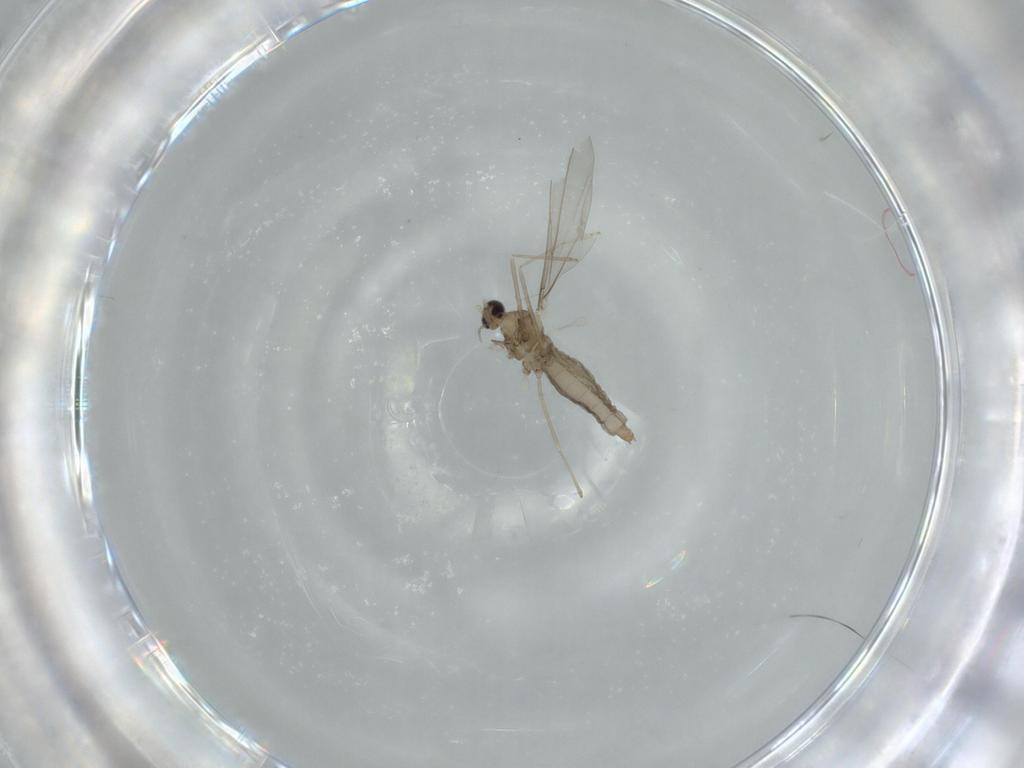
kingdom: Animalia
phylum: Arthropoda
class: Insecta
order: Diptera
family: Cecidomyiidae
